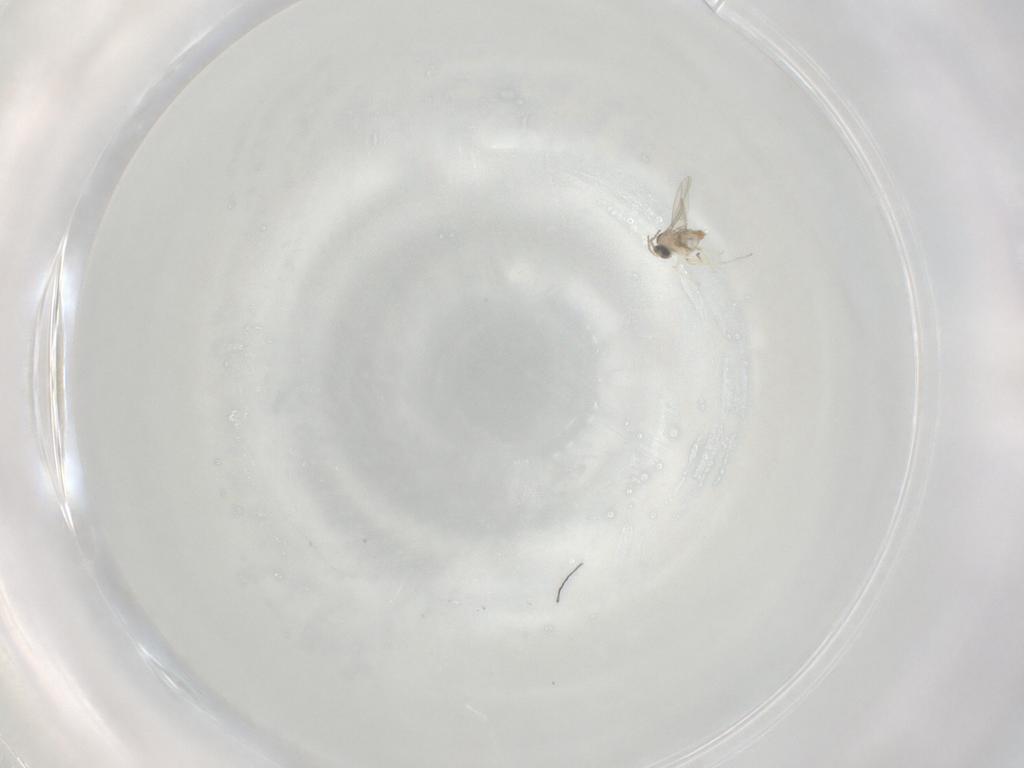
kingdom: Animalia
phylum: Arthropoda
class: Insecta
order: Diptera
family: Cecidomyiidae
